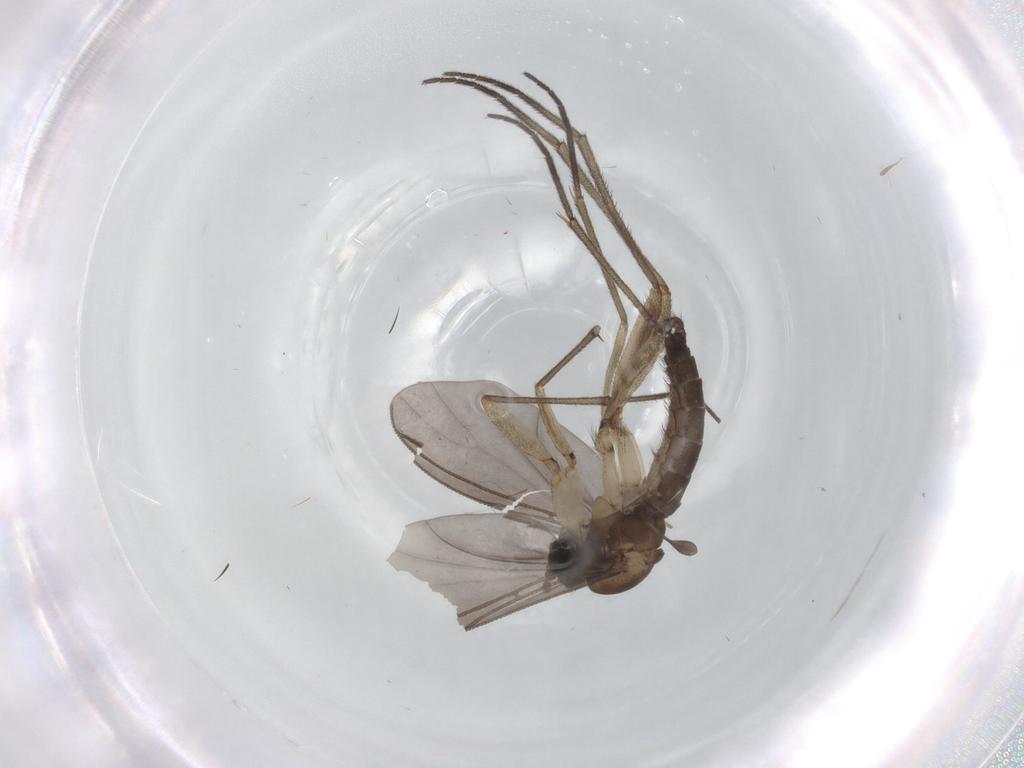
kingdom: Animalia
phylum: Arthropoda
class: Insecta
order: Diptera
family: Sciaridae
